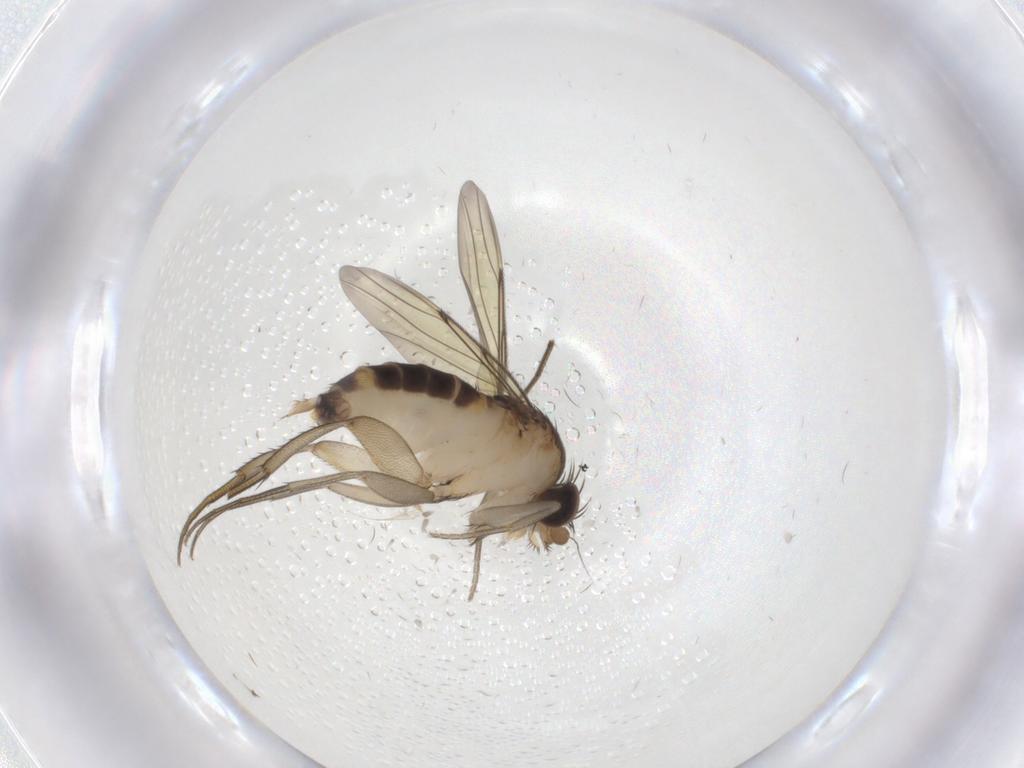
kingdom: Animalia
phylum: Arthropoda
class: Insecta
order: Diptera
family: Phoridae
